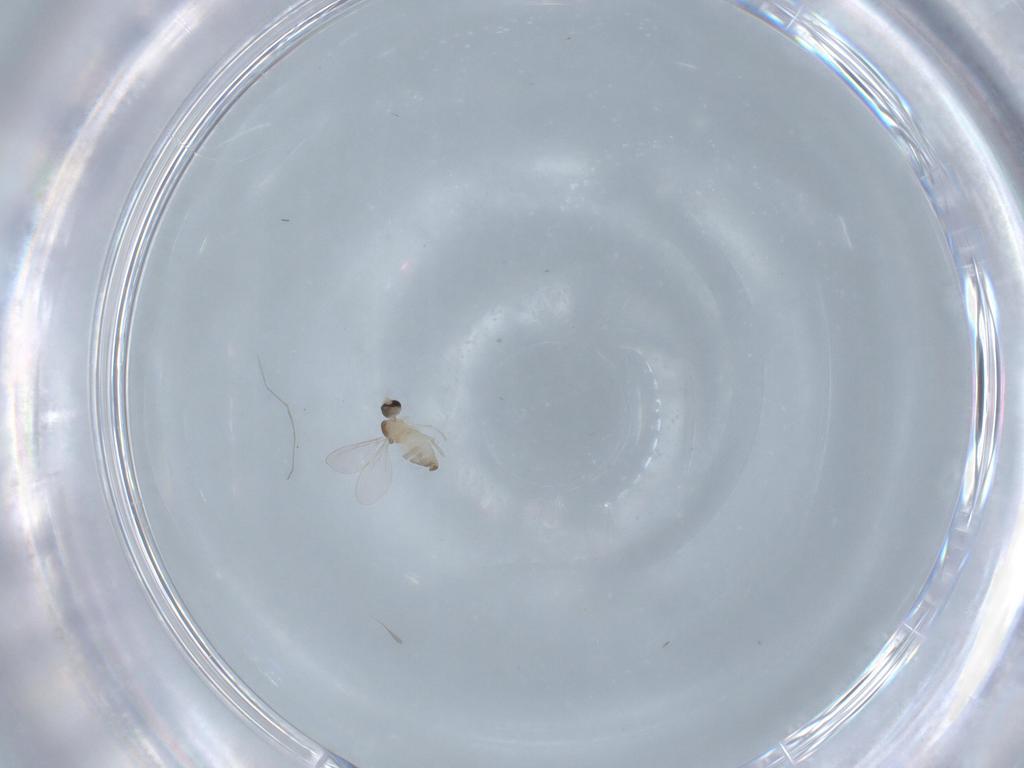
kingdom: Animalia
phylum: Arthropoda
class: Insecta
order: Diptera
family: Cecidomyiidae
